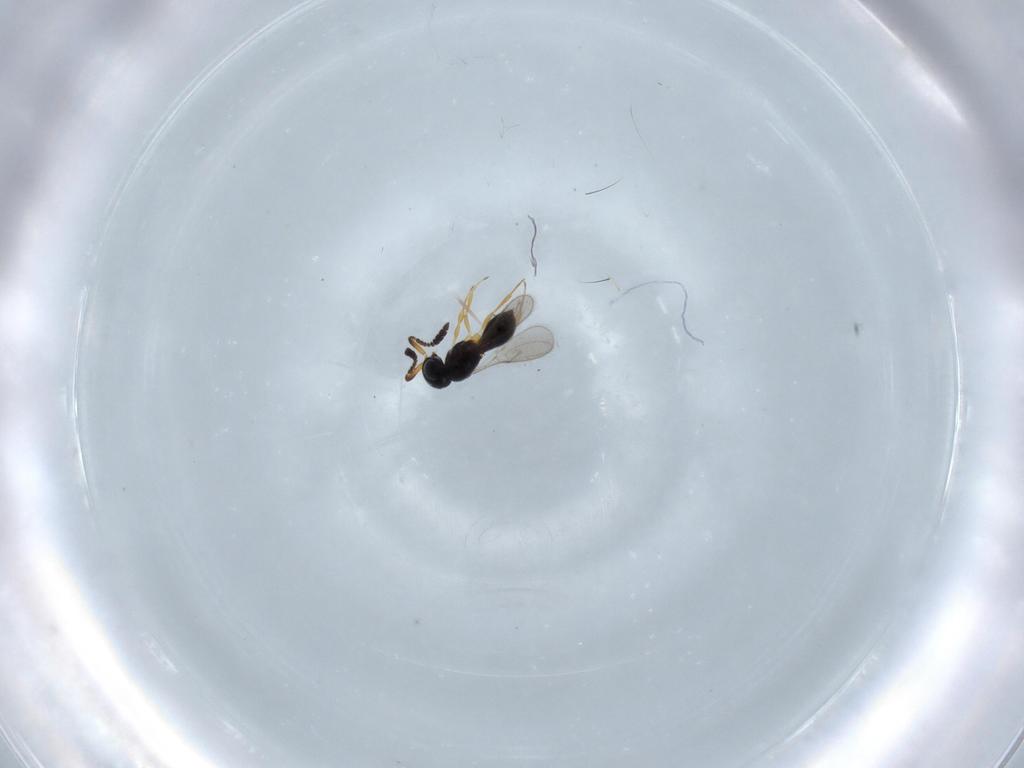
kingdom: Animalia
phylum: Arthropoda
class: Insecta
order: Hymenoptera
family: Scelionidae
